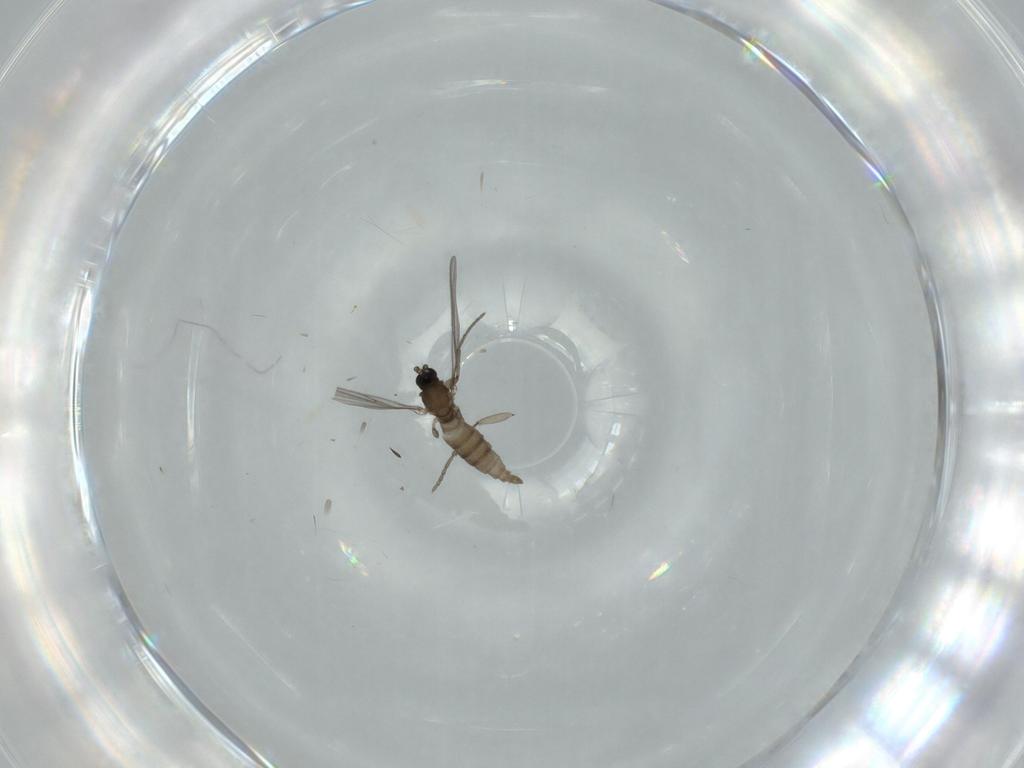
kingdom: Animalia
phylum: Arthropoda
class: Insecta
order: Diptera
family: Sciaridae
